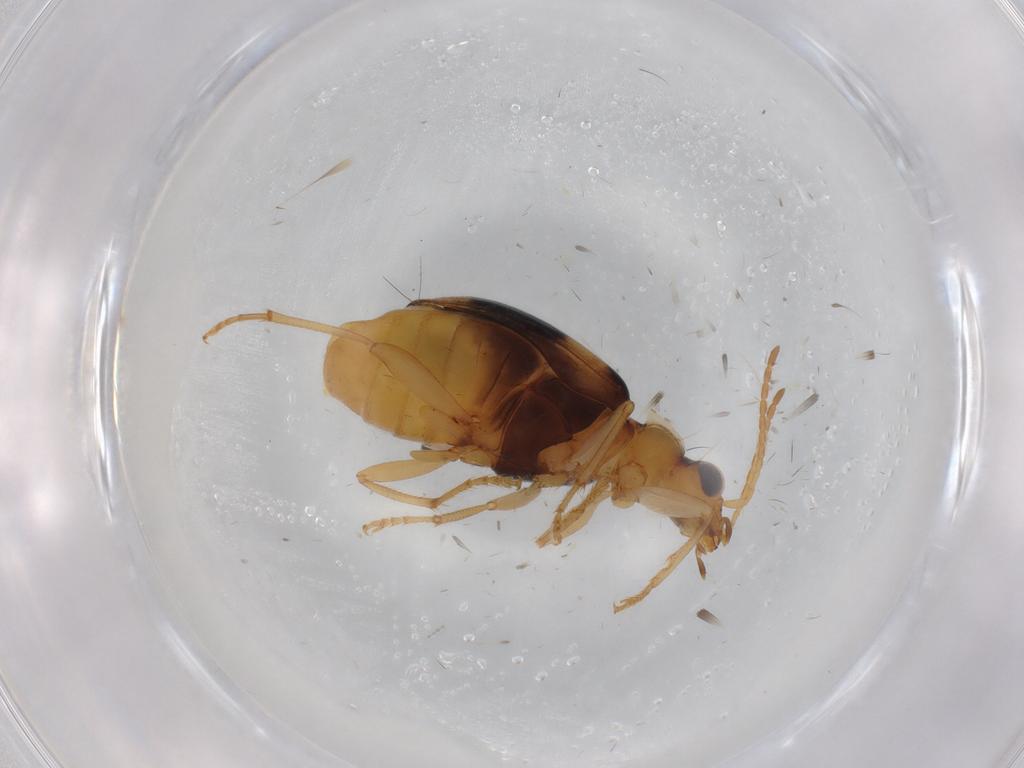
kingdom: Animalia
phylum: Arthropoda
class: Insecta
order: Coleoptera
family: Carabidae
